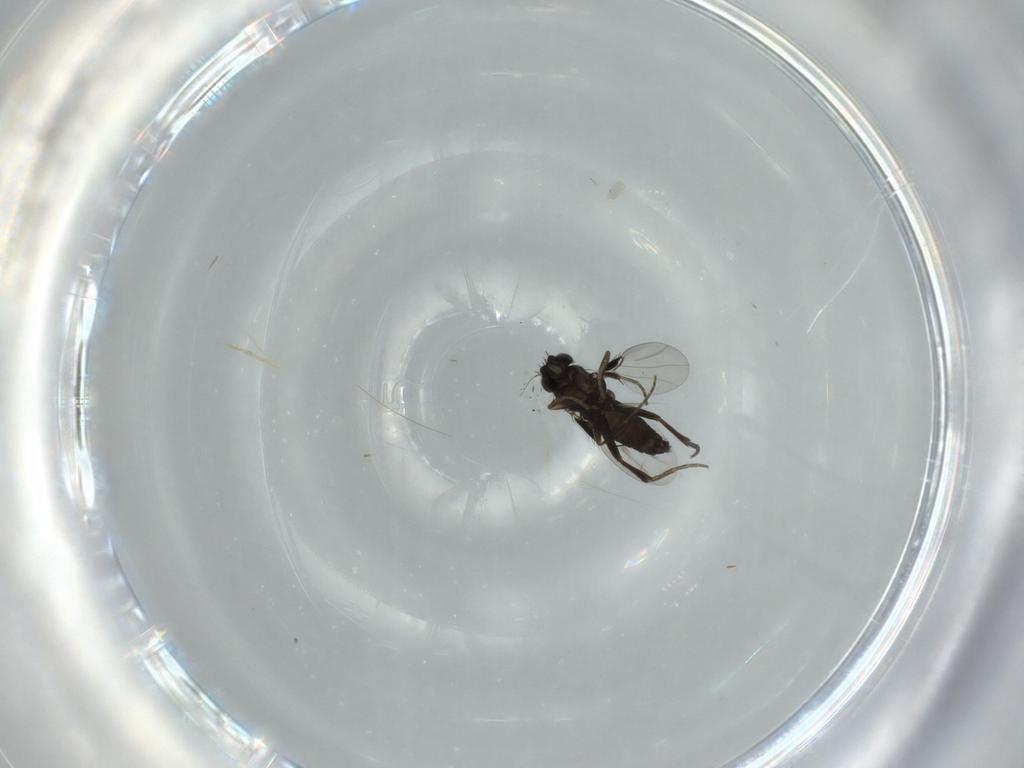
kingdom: Animalia
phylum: Arthropoda
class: Insecta
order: Diptera
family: Phoridae
